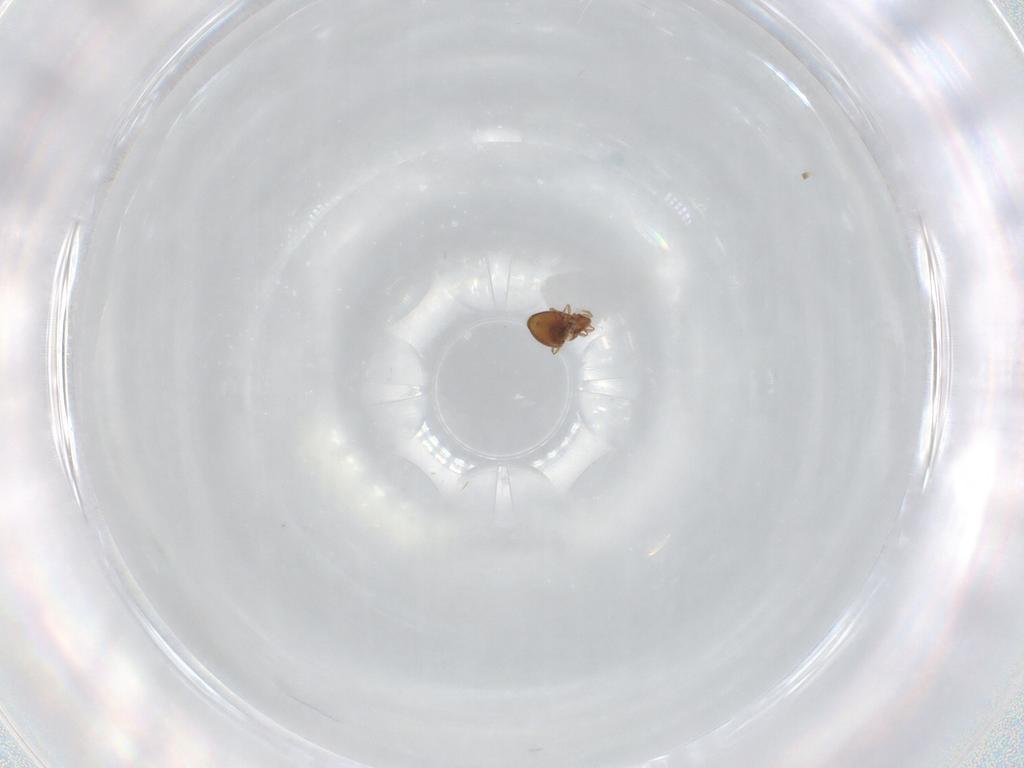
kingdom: Animalia
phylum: Arthropoda
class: Arachnida
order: Sarcoptiformes
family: Oribatulidae
